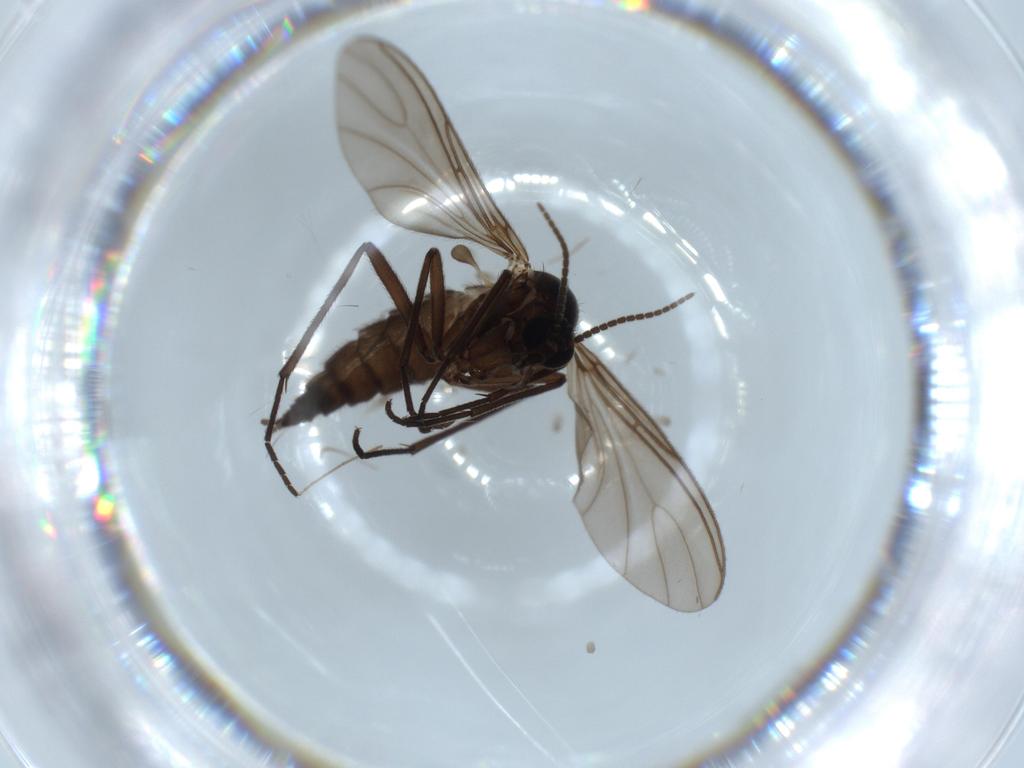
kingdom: Animalia
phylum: Arthropoda
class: Insecta
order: Diptera
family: Sciaridae
